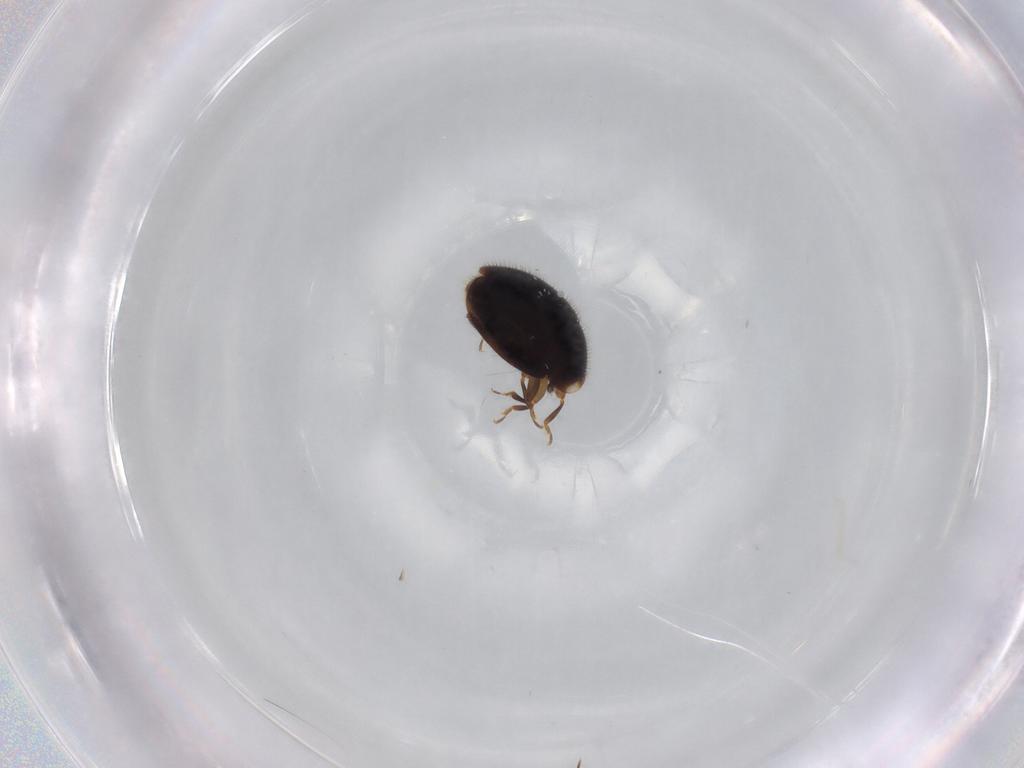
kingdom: Animalia
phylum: Arthropoda
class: Insecta
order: Coleoptera
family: Corylophidae
